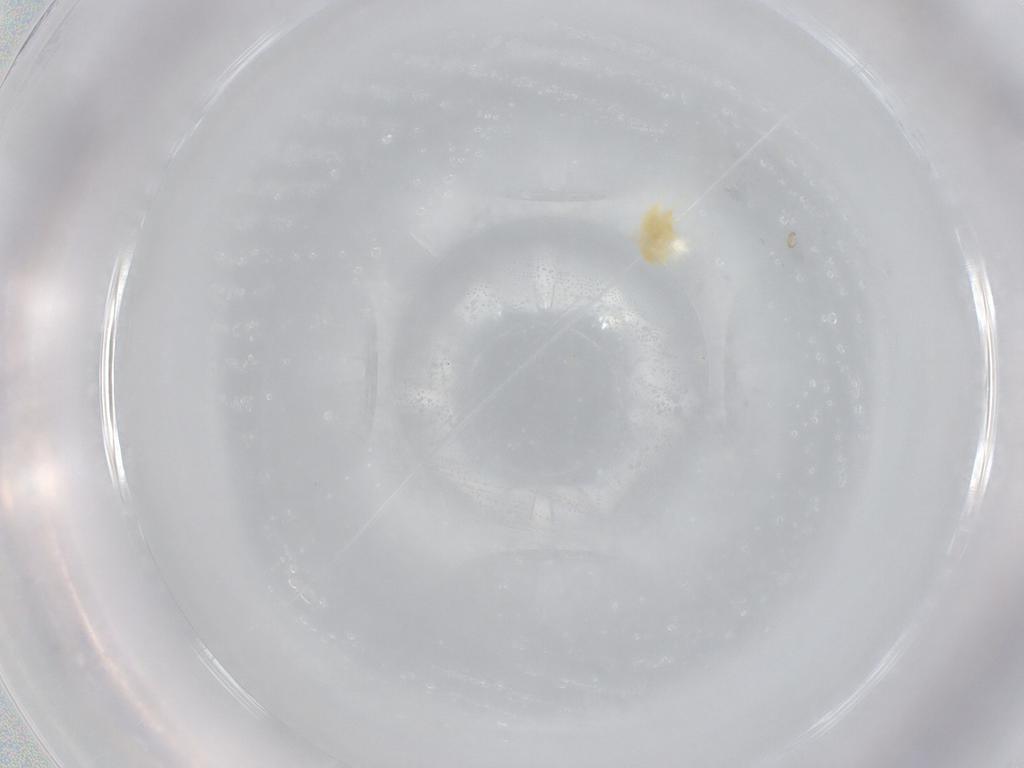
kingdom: Animalia
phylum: Arthropoda
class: Arachnida
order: Trombidiformes
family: Tetranychidae
